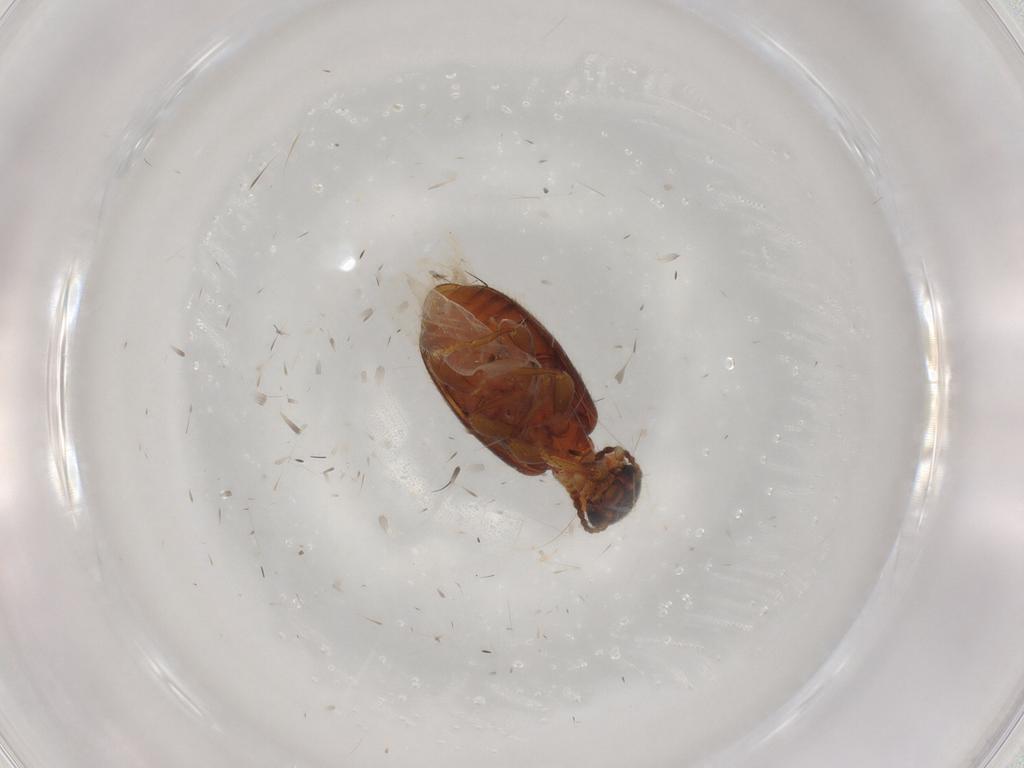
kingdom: Animalia
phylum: Arthropoda
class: Insecta
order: Coleoptera
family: Anthicidae
